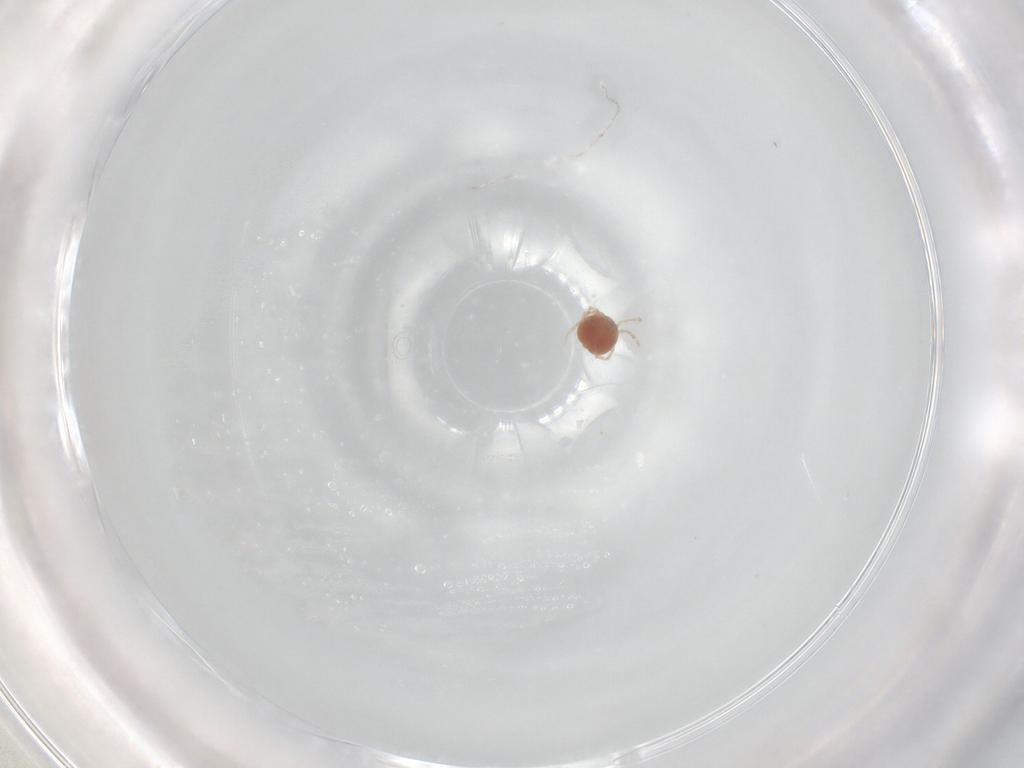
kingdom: Animalia
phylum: Arthropoda
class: Arachnida
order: Trombidiformes
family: Lebertiidae
